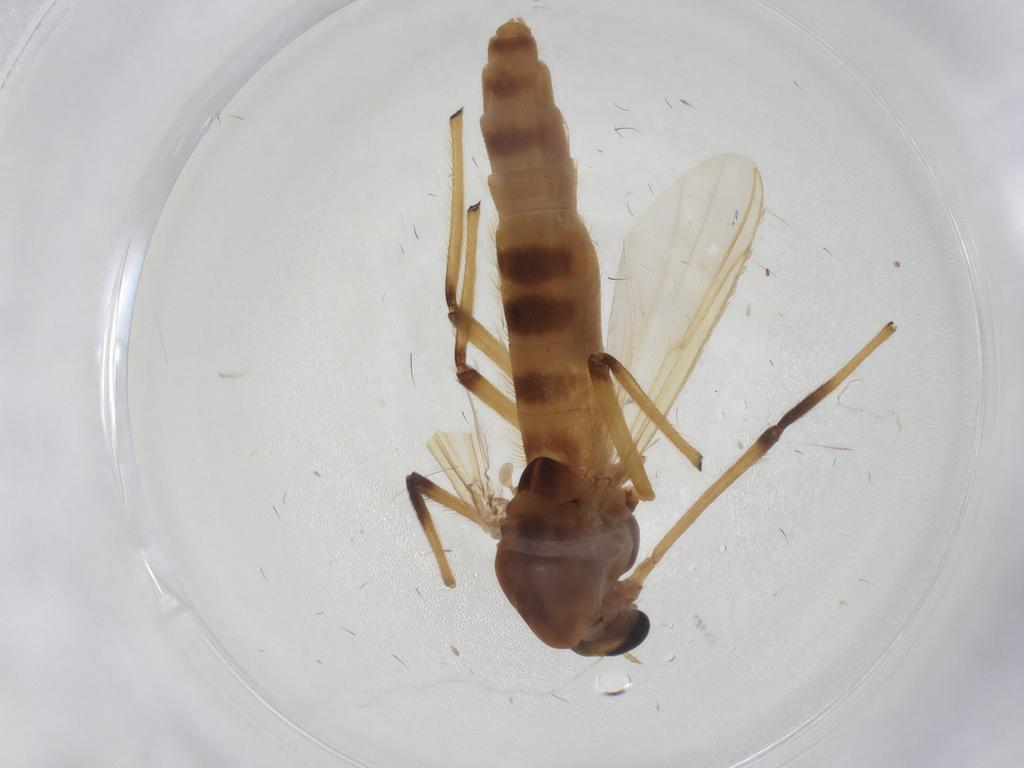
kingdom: Animalia
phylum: Arthropoda
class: Insecta
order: Diptera
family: Chironomidae
